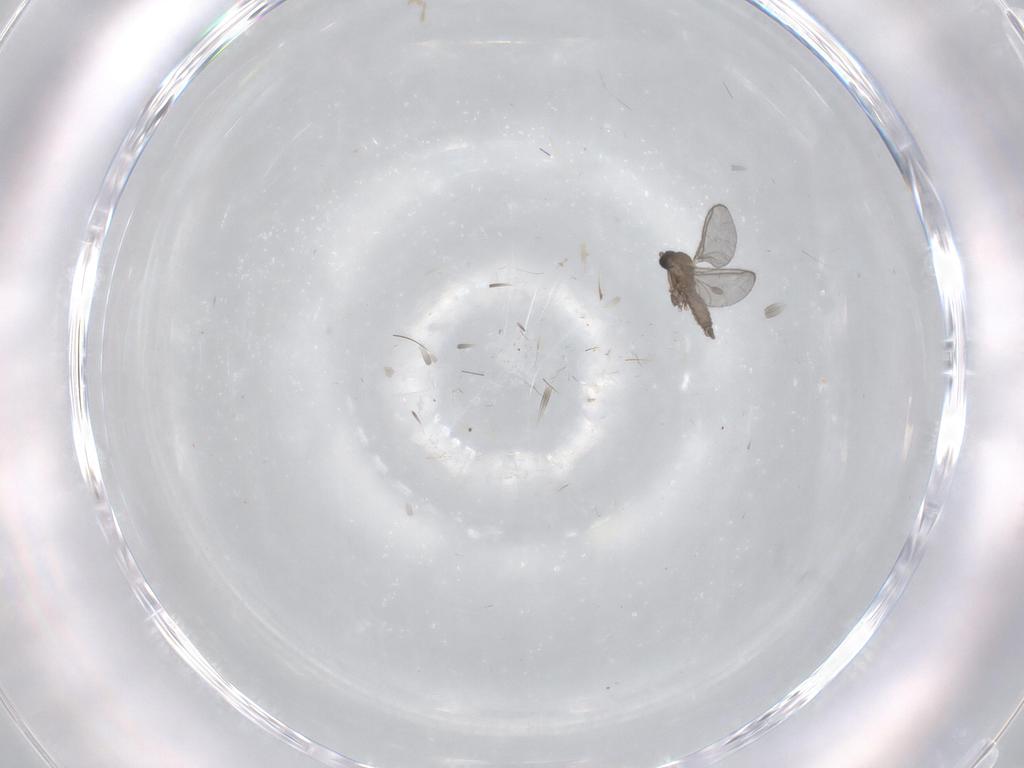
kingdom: Animalia
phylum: Arthropoda
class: Insecta
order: Diptera
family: Sciaridae
